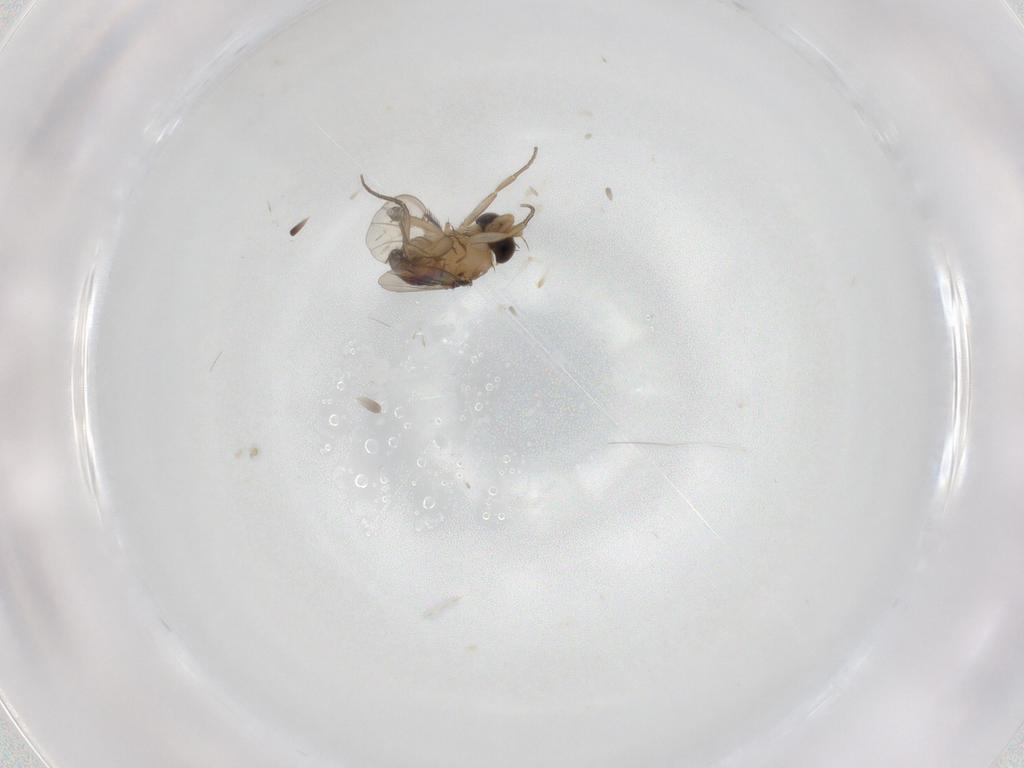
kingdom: Animalia
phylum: Arthropoda
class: Insecta
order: Diptera
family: Phoridae
